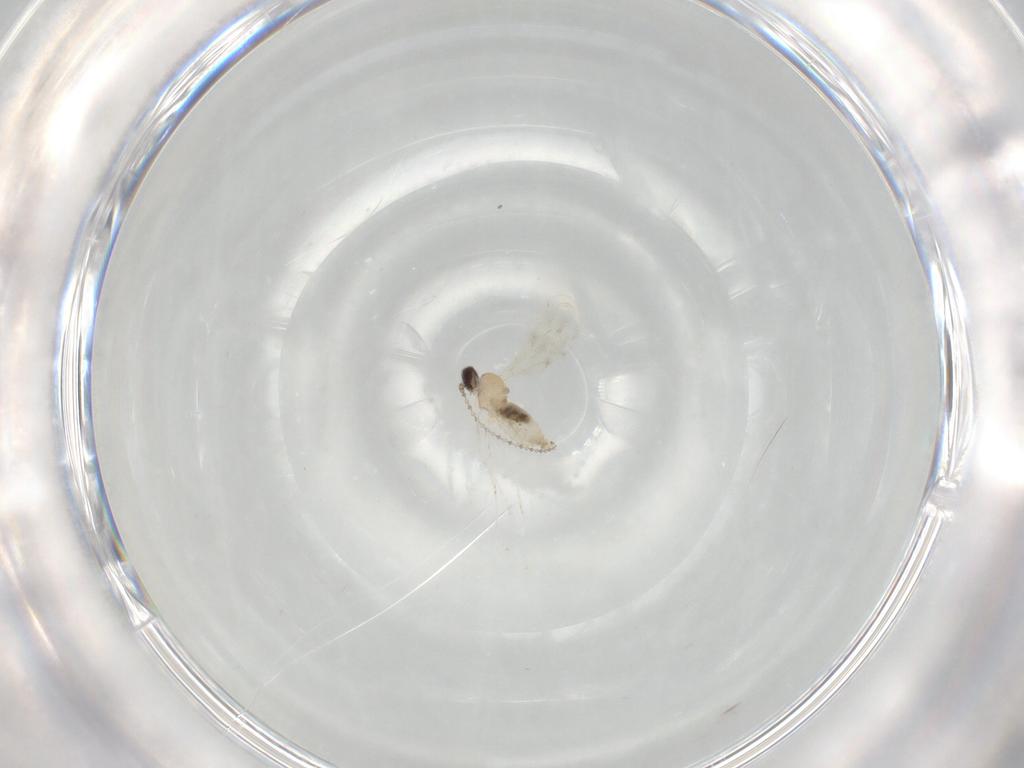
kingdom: Animalia
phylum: Arthropoda
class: Insecta
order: Diptera
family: Cecidomyiidae
